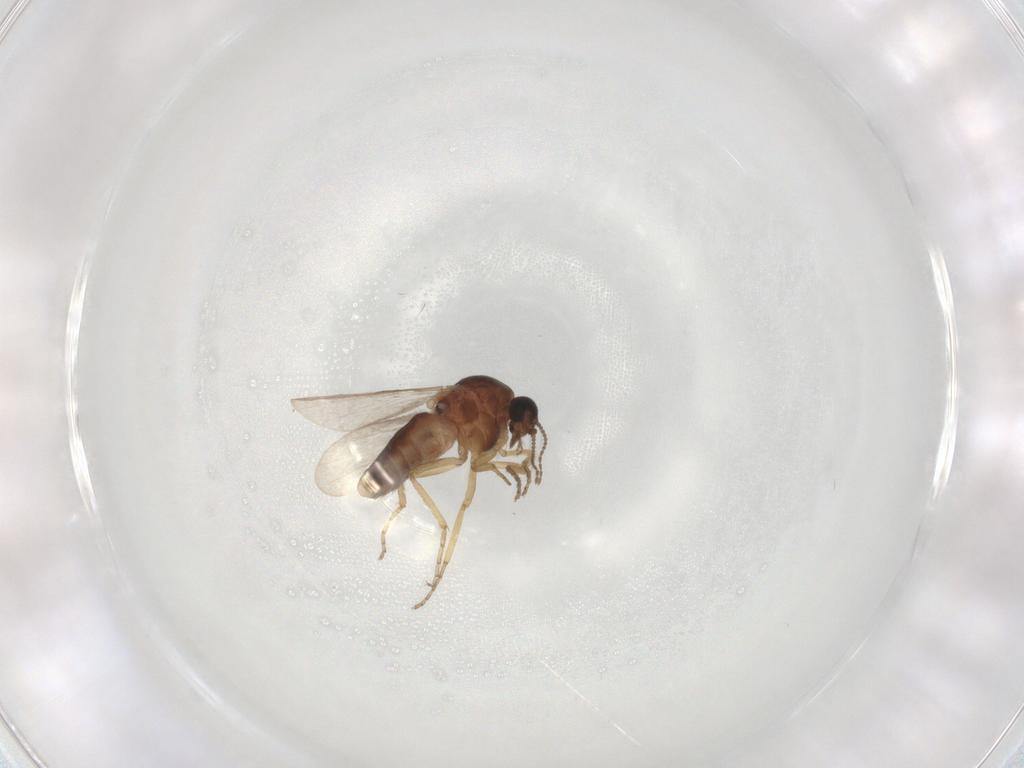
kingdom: Animalia
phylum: Arthropoda
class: Insecta
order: Diptera
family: Ceratopogonidae
